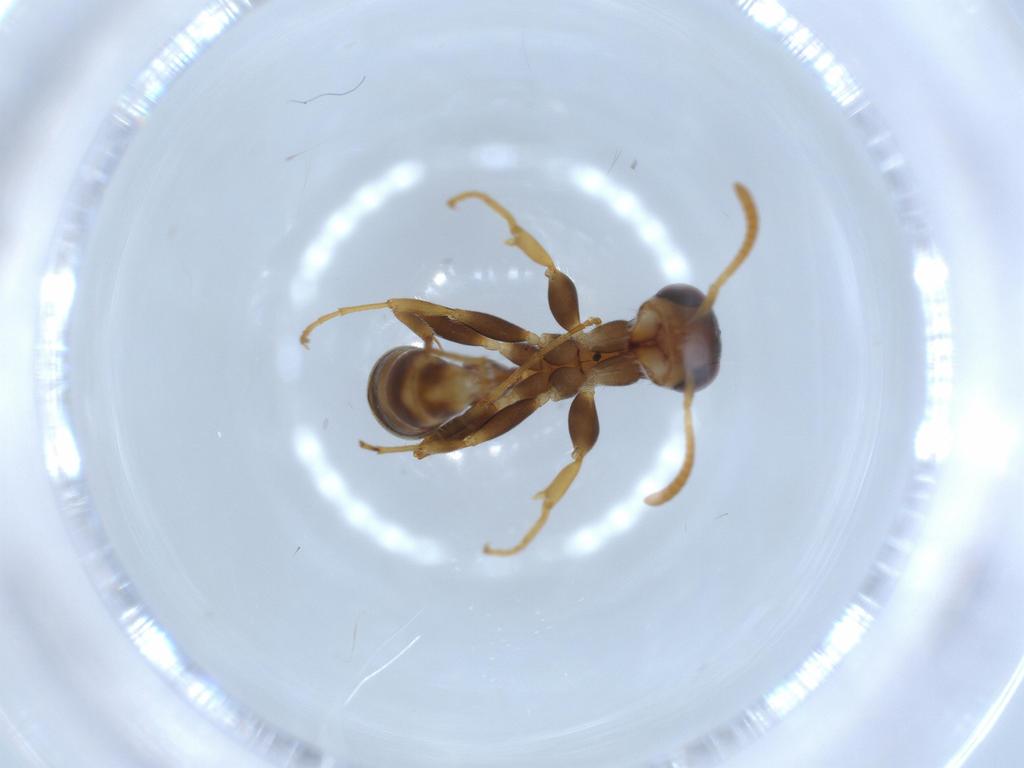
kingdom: Animalia
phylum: Arthropoda
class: Insecta
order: Hymenoptera
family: Formicidae
